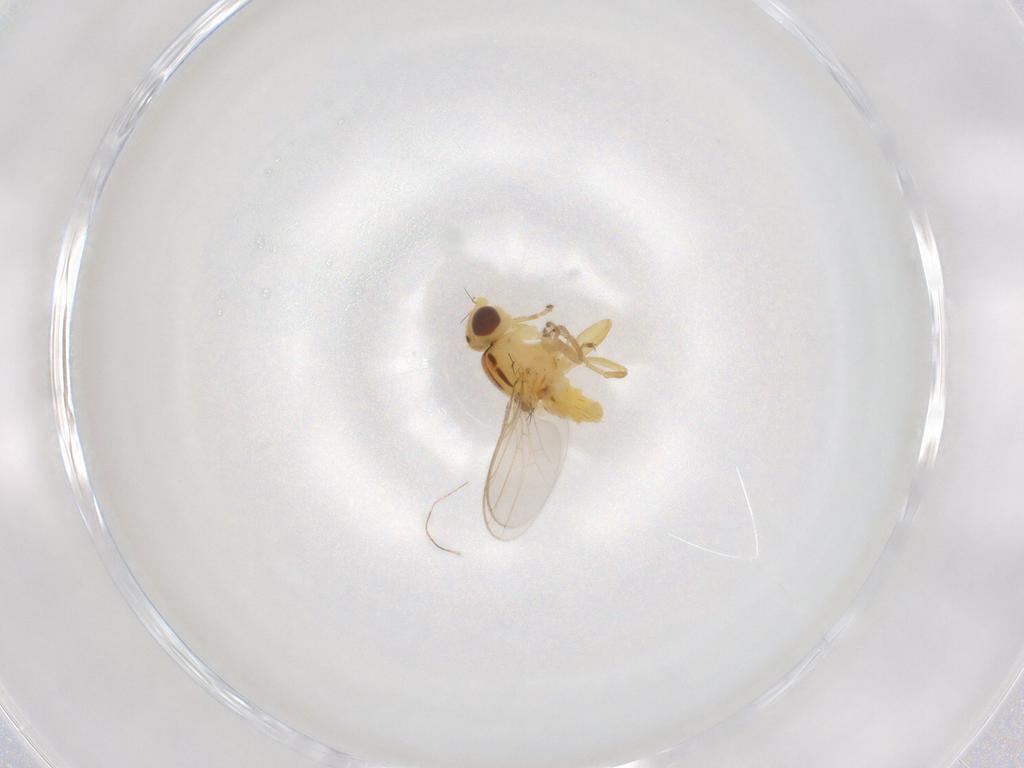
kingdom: Animalia
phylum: Arthropoda
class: Insecta
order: Diptera
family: Chloropidae
